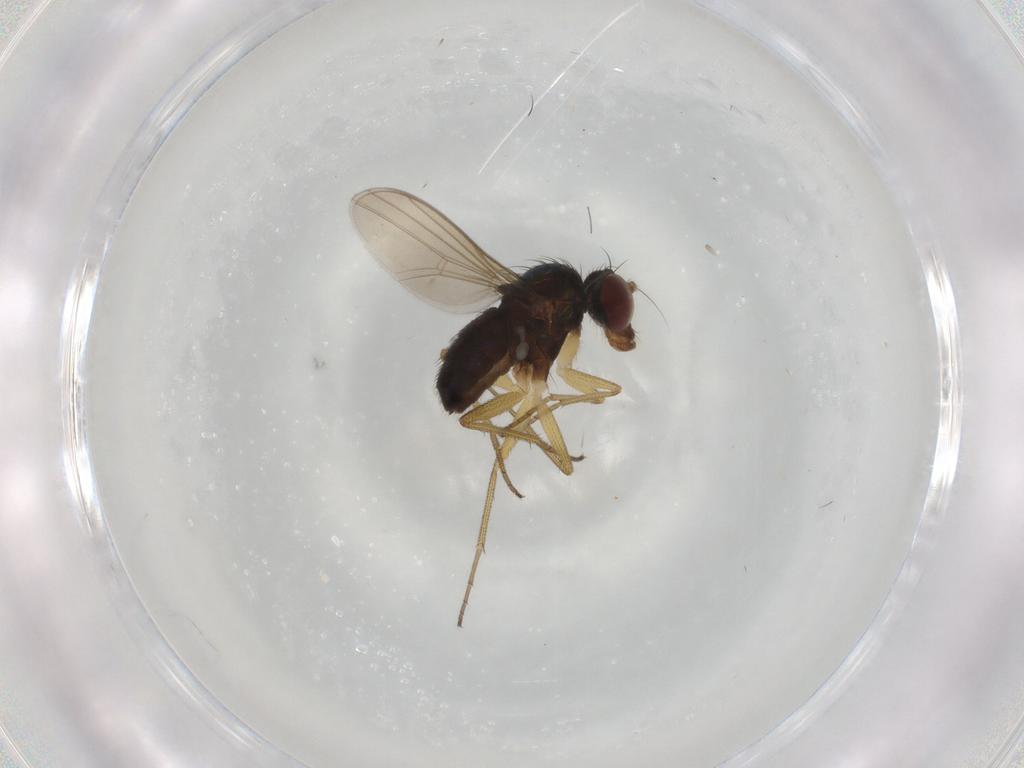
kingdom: Animalia
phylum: Arthropoda
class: Insecta
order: Diptera
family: Dolichopodidae
